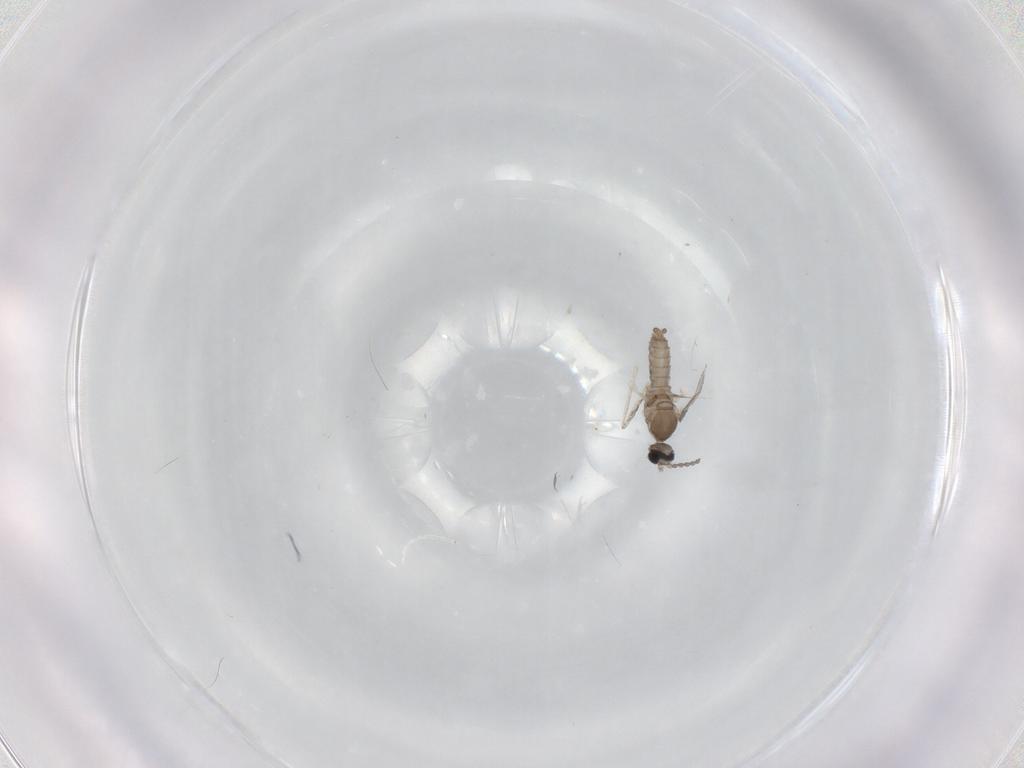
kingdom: Animalia
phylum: Arthropoda
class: Insecta
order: Diptera
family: Cecidomyiidae
